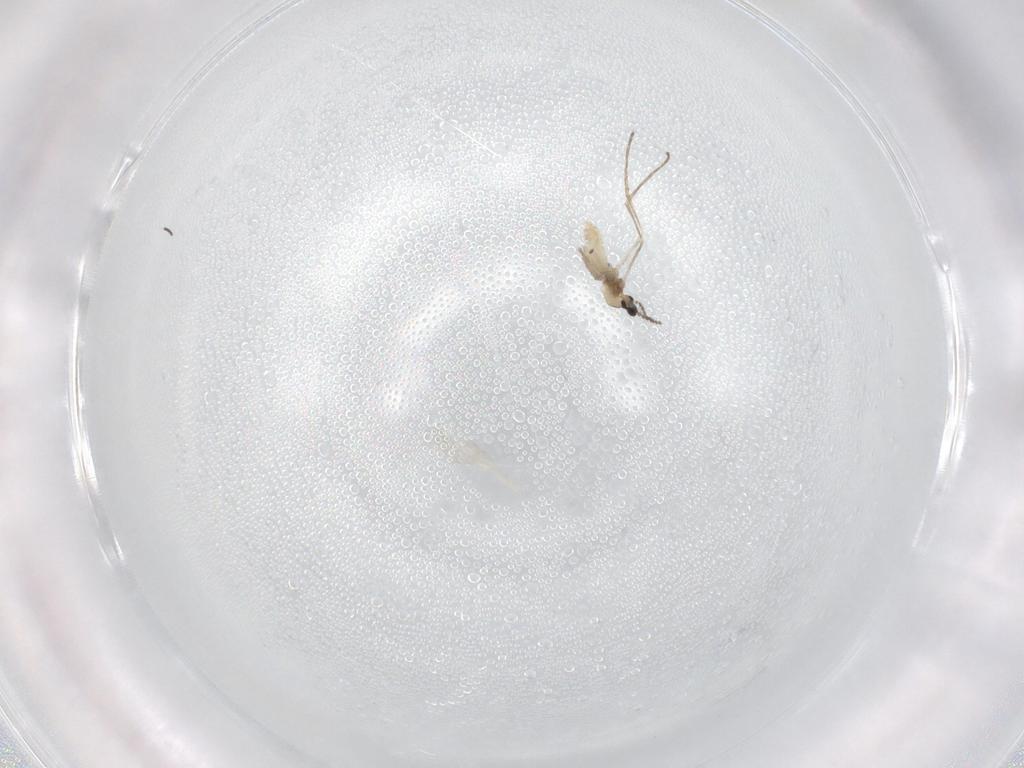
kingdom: Animalia
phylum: Arthropoda
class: Insecta
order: Diptera
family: Cecidomyiidae
